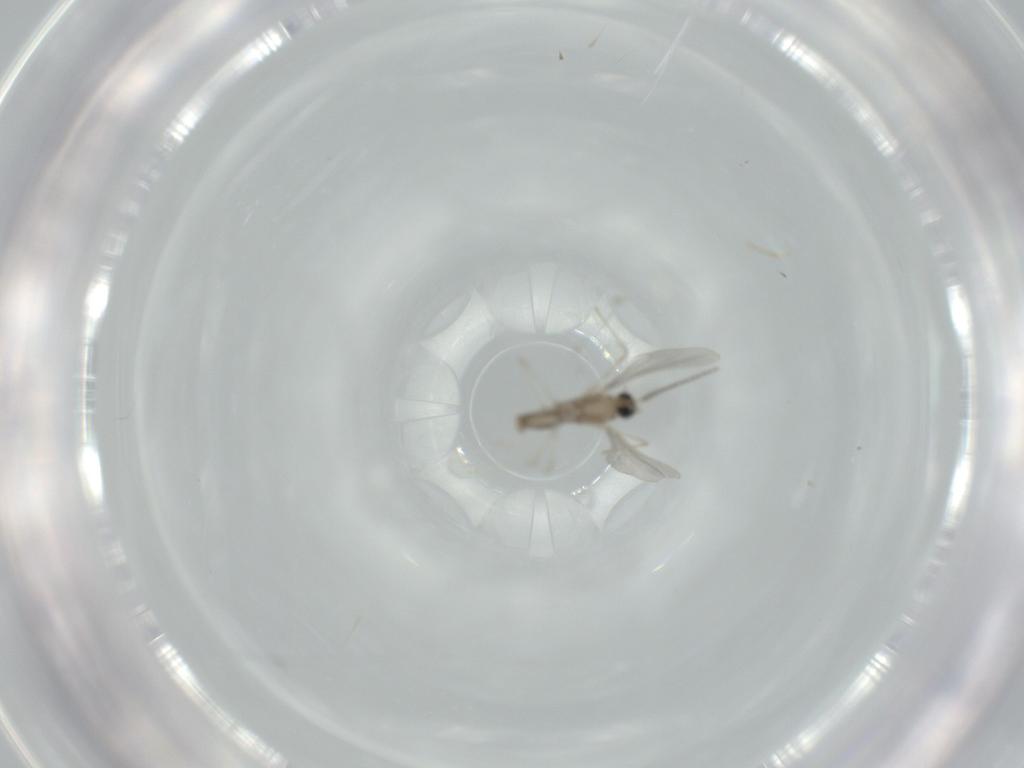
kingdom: Animalia
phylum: Arthropoda
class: Insecta
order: Diptera
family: Cecidomyiidae
